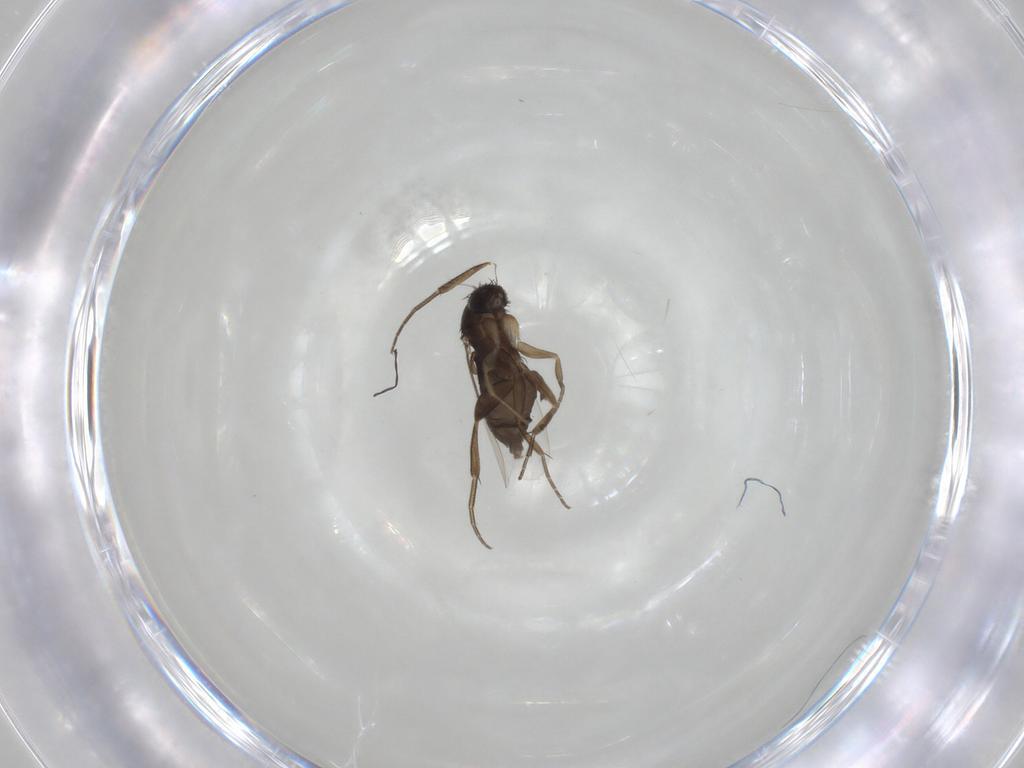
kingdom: Animalia
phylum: Arthropoda
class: Insecta
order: Diptera
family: Phoridae
